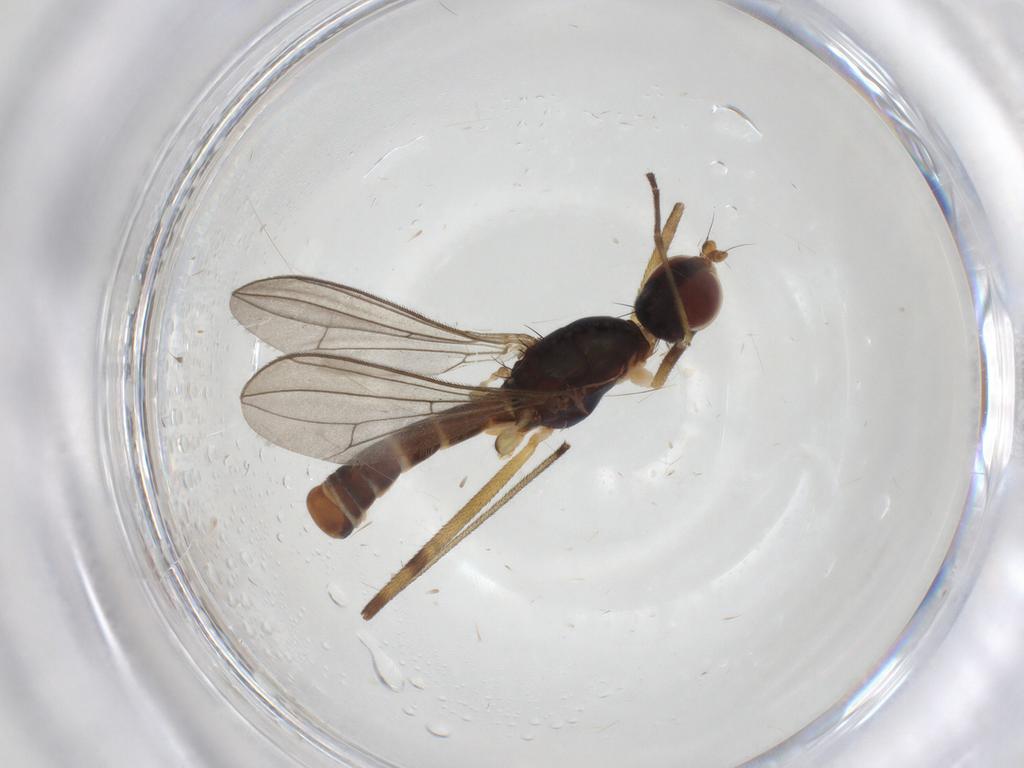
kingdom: Animalia
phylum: Arthropoda
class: Insecta
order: Diptera
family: Micropezidae
